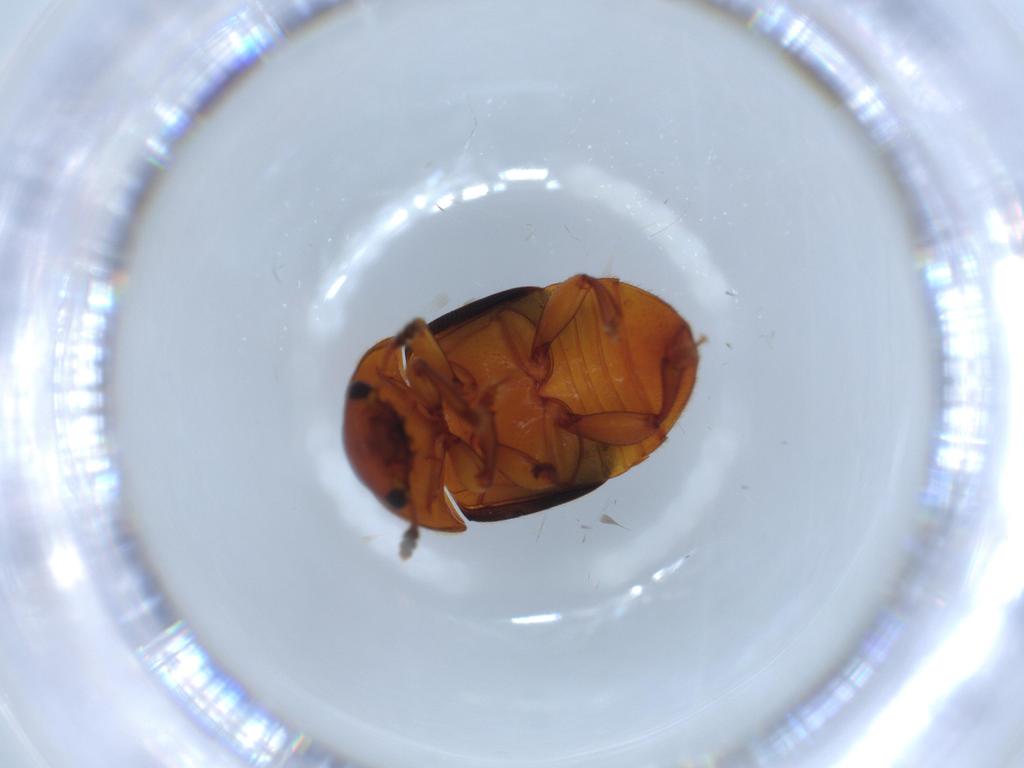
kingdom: Animalia
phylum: Arthropoda
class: Insecta
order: Coleoptera
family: Nitidulidae
